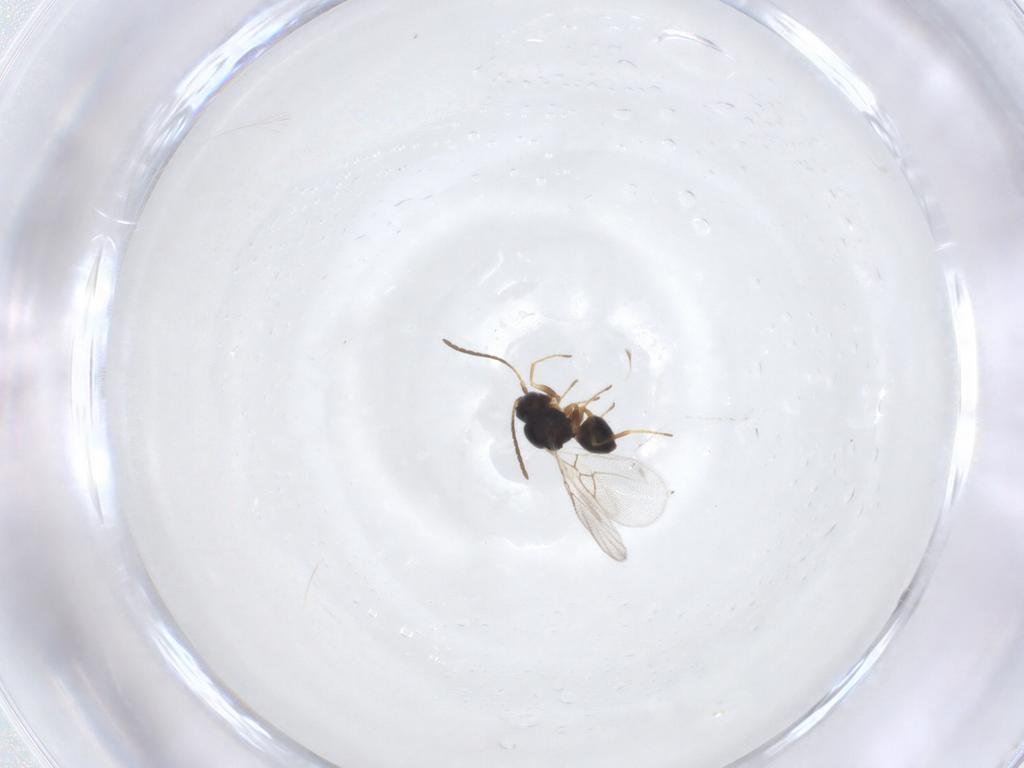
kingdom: Animalia
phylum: Arthropoda
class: Insecta
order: Hymenoptera
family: Figitidae
